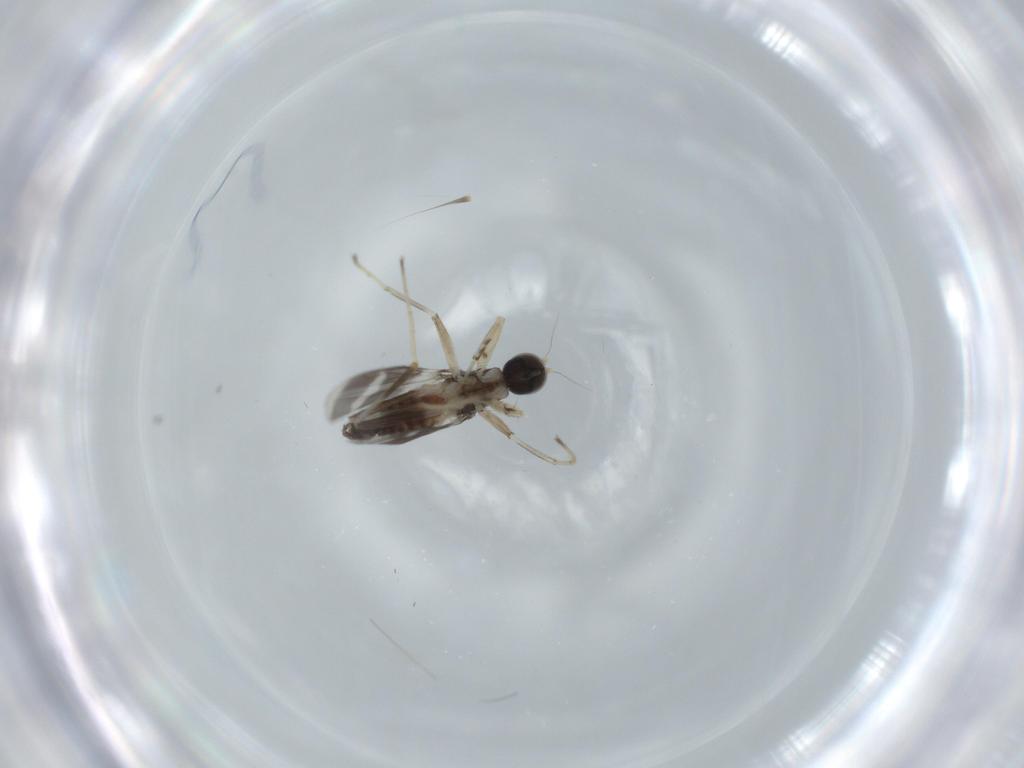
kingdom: Animalia
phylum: Arthropoda
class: Insecta
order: Diptera
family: Hybotidae
